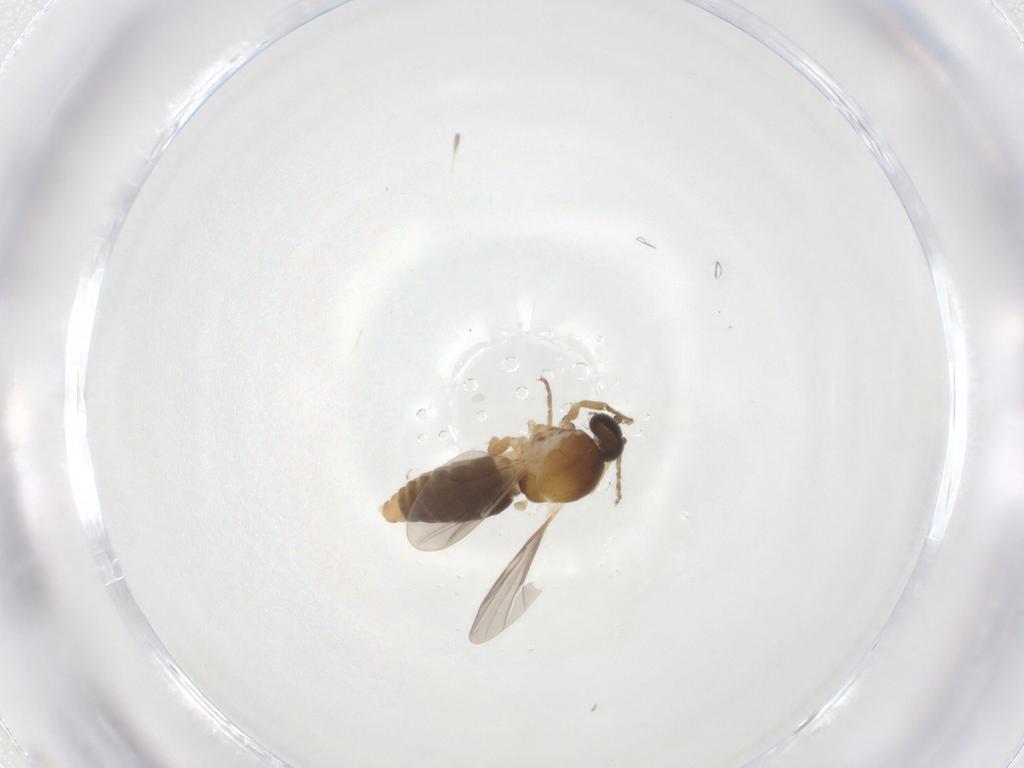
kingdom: Animalia
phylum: Arthropoda
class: Insecta
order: Diptera
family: Ceratopogonidae
